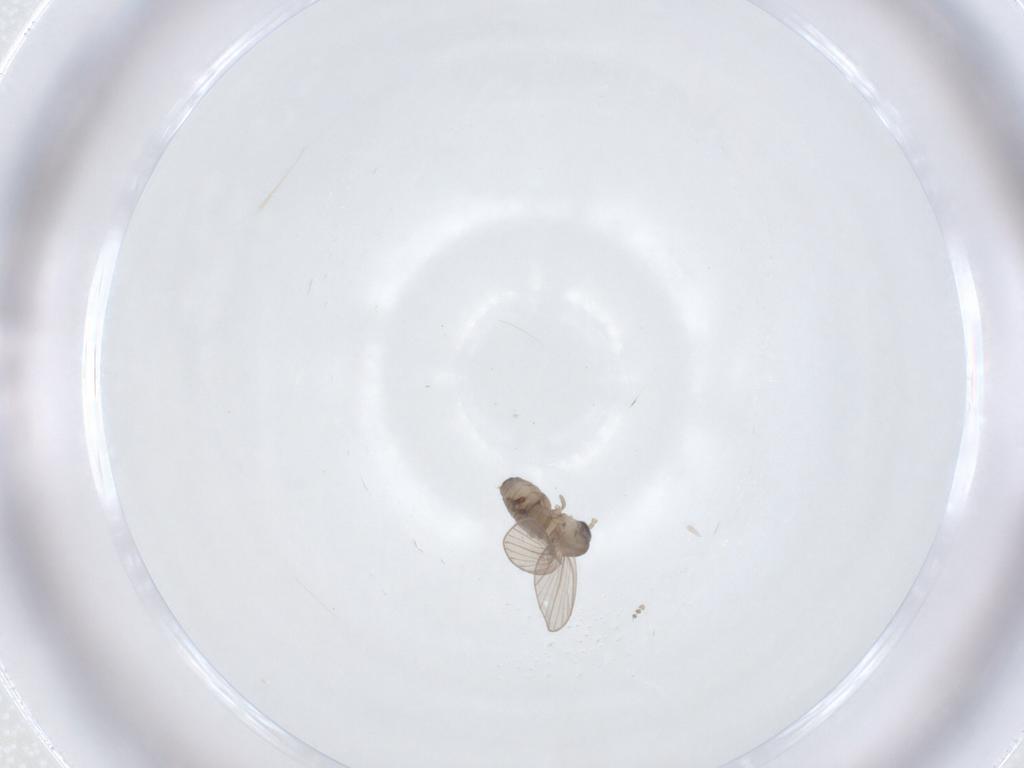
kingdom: Animalia
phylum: Arthropoda
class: Insecta
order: Diptera
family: Psychodidae
